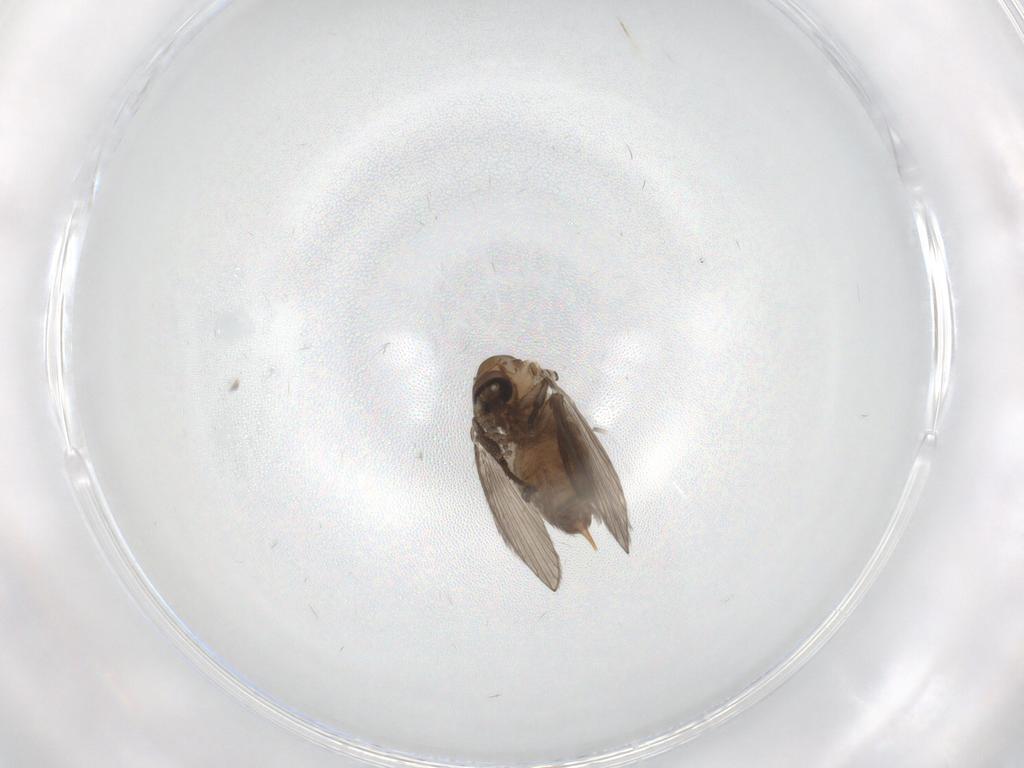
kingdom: Animalia
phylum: Arthropoda
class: Insecta
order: Diptera
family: Psychodidae
